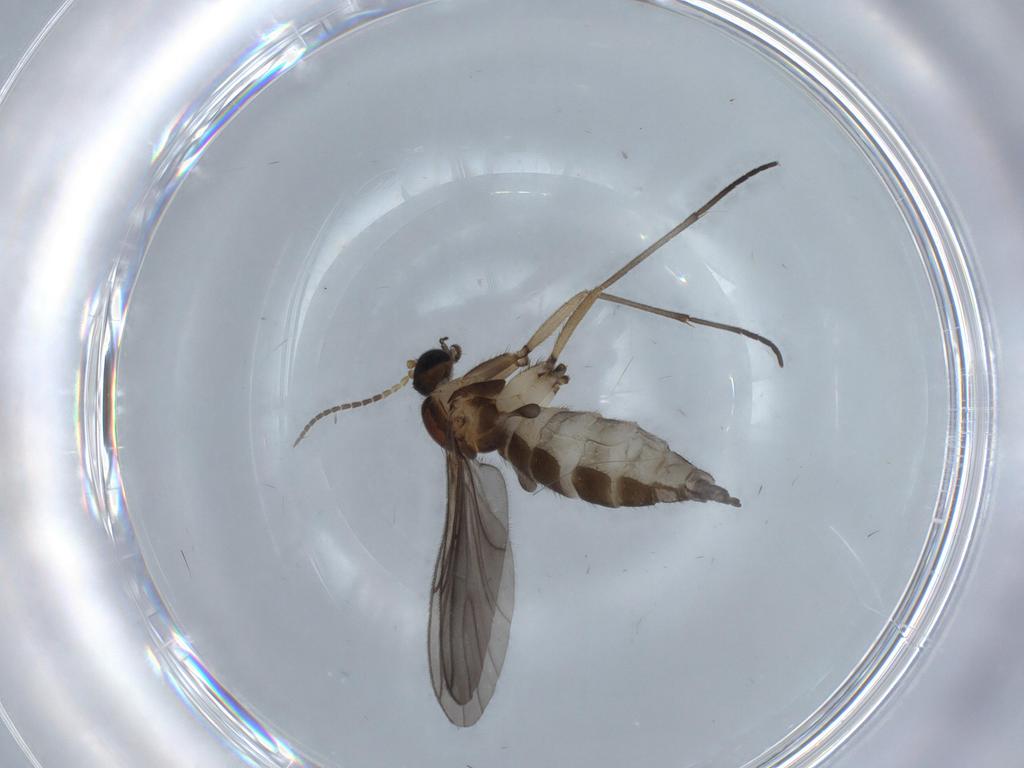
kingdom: Animalia
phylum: Arthropoda
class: Insecta
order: Diptera
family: Sciaridae
